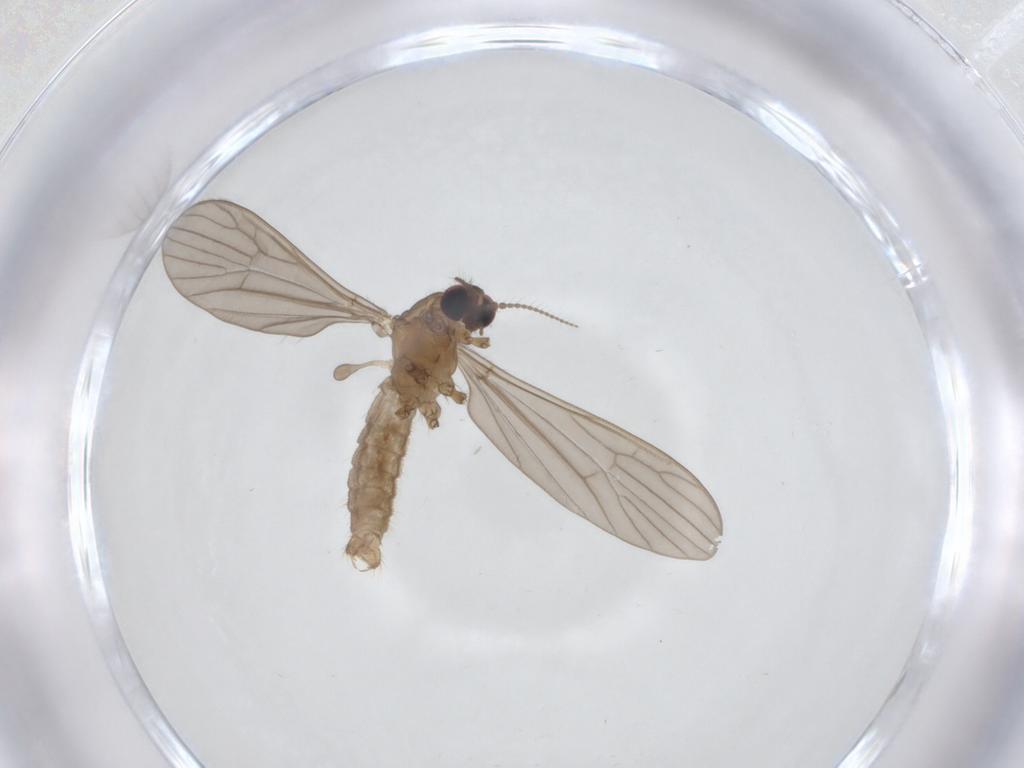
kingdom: Animalia
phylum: Arthropoda
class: Insecta
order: Diptera
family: Limoniidae
